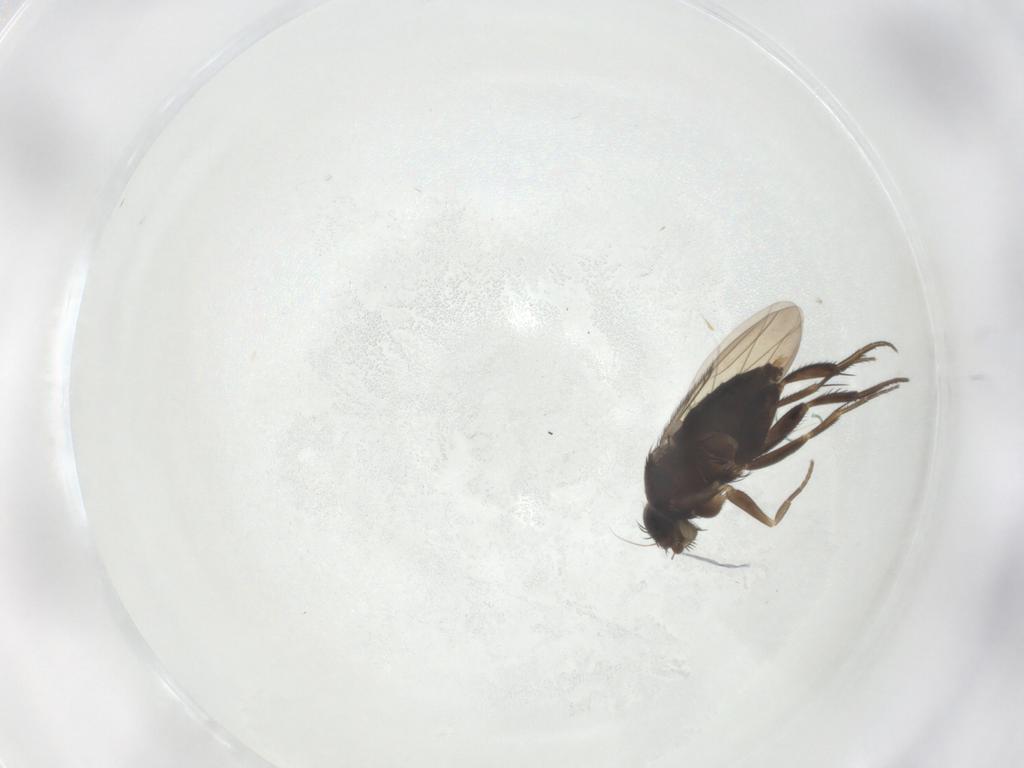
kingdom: Animalia
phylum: Arthropoda
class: Insecta
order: Diptera
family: Phoridae
